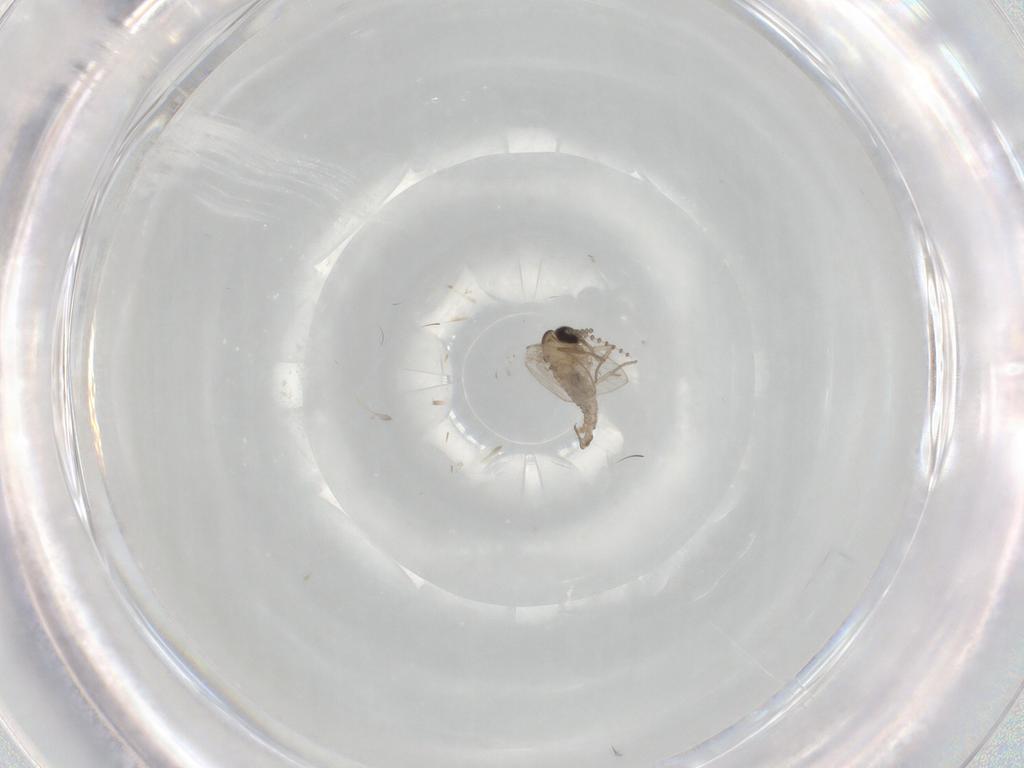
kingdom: Animalia
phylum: Arthropoda
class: Insecta
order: Diptera
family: Psychodidae
